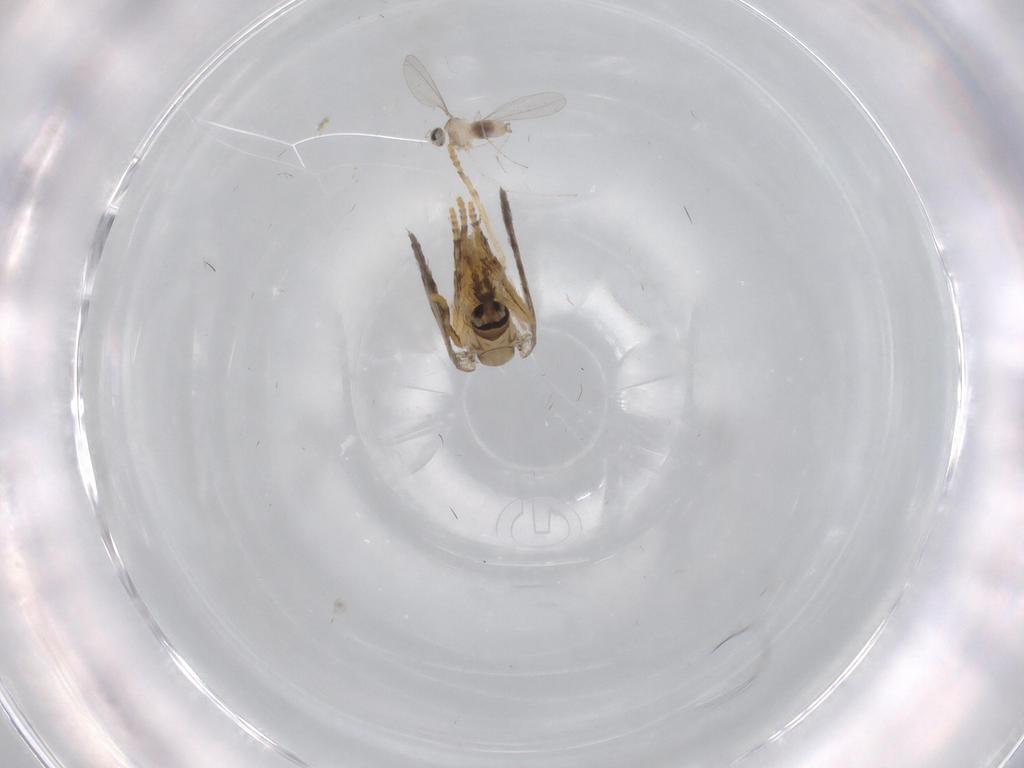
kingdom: Animalia
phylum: Arthropoda
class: Insecta
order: Diptera
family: Psychodidae
